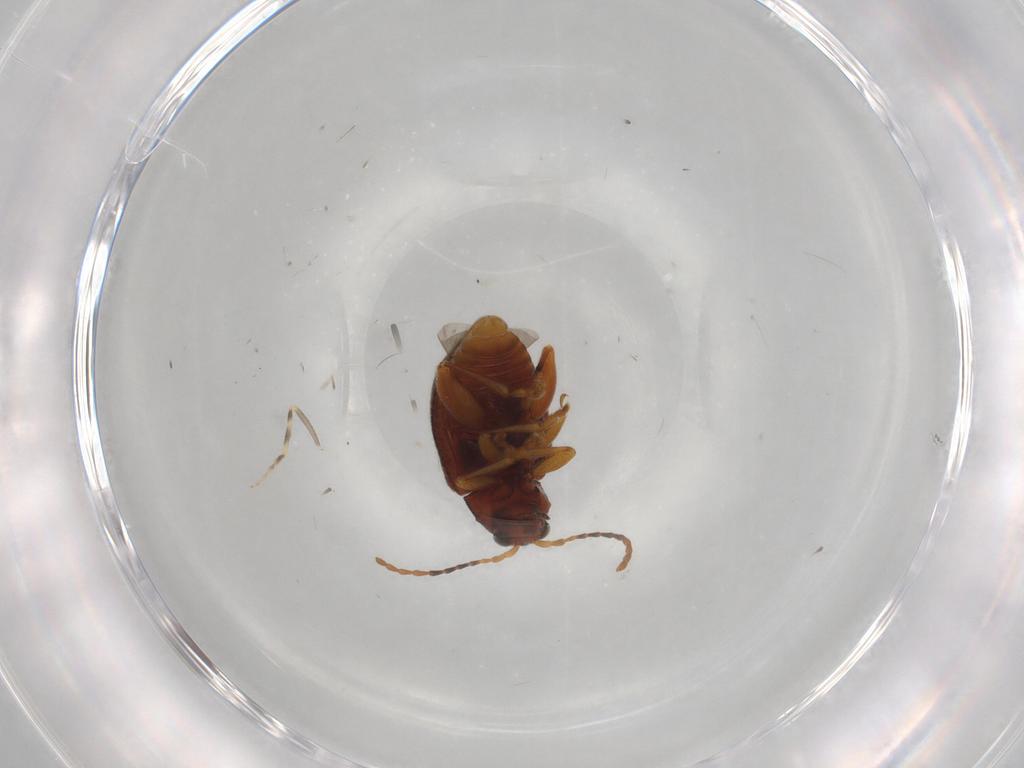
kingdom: Animalia
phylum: Arthropoda
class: Insecta
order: Coleoptera
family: Chrysomelidae
